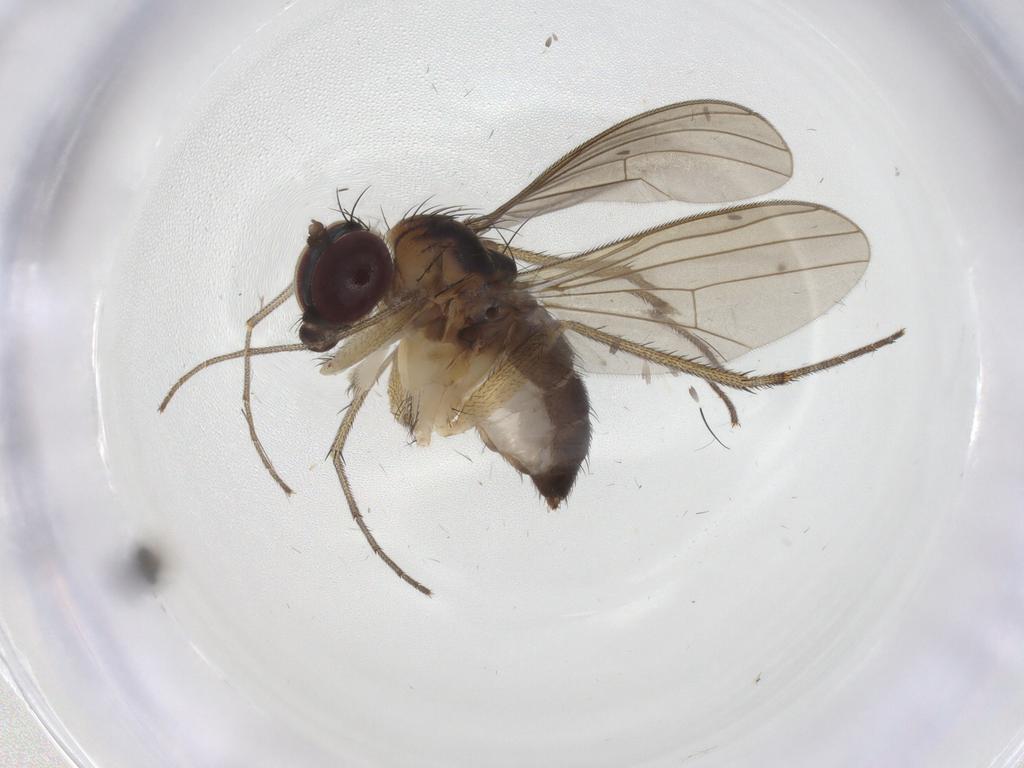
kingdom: Animalia
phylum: Arthropoda
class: Insecta
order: Diptera
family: Dolichopodidae
